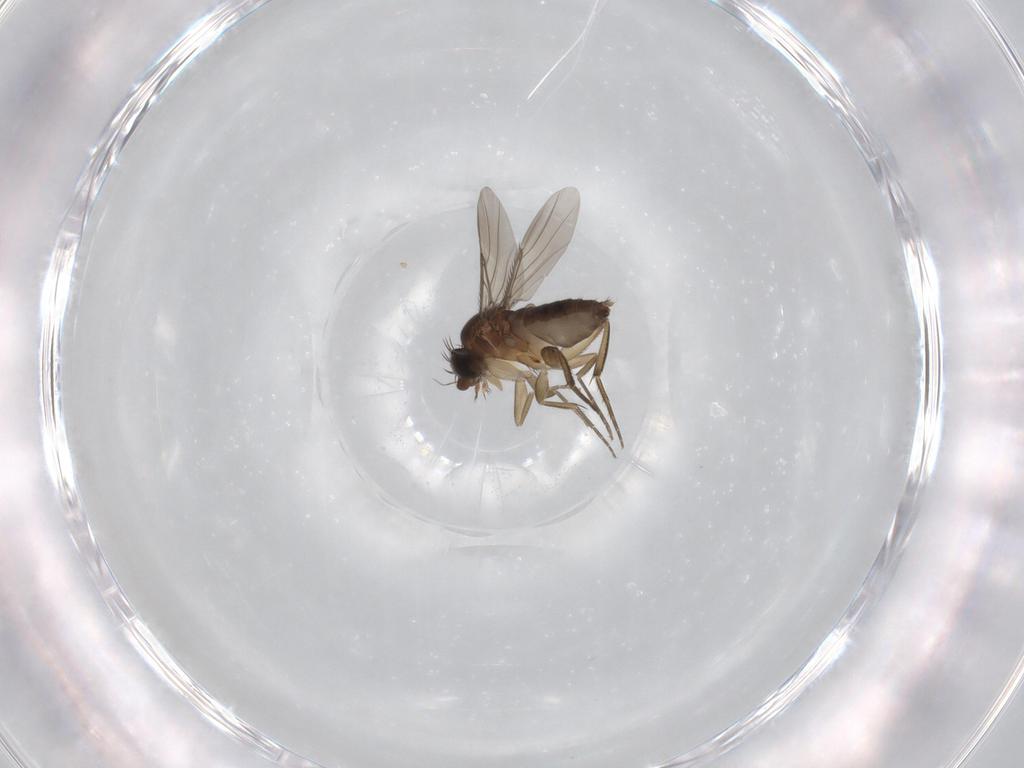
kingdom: Animalia
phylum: Arthropoda
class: Insecta
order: Diptera
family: Phoridae
